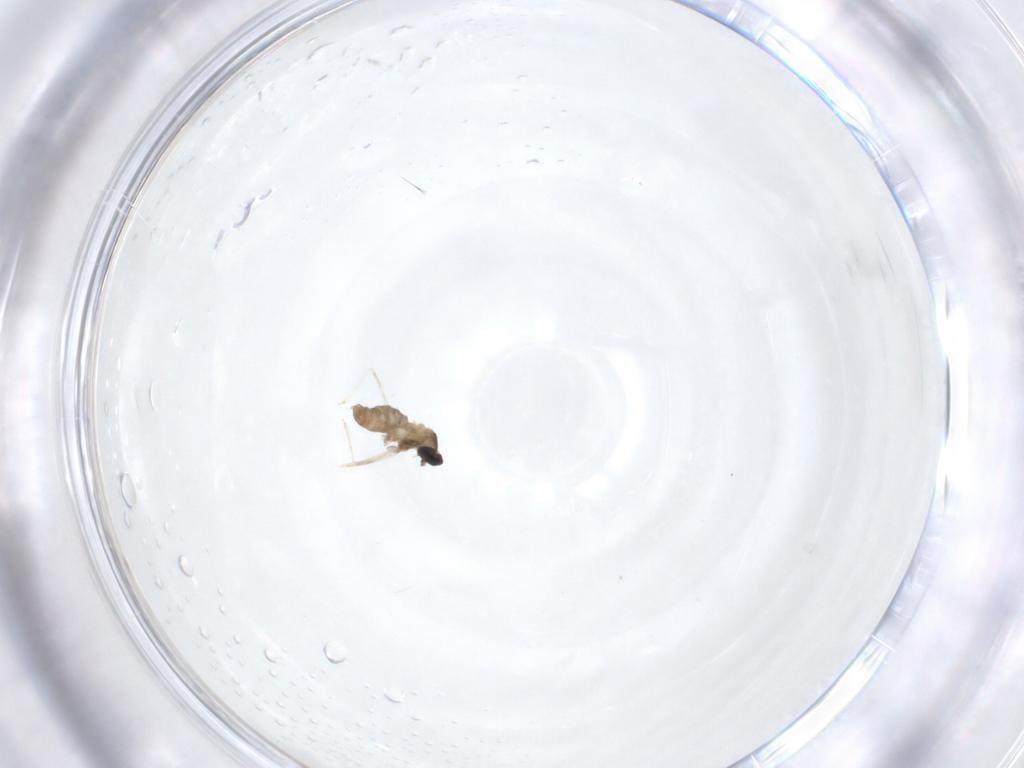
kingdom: Animalia
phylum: Arthropoda
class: Insecta
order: Diptera
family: Cecidomyiidae
